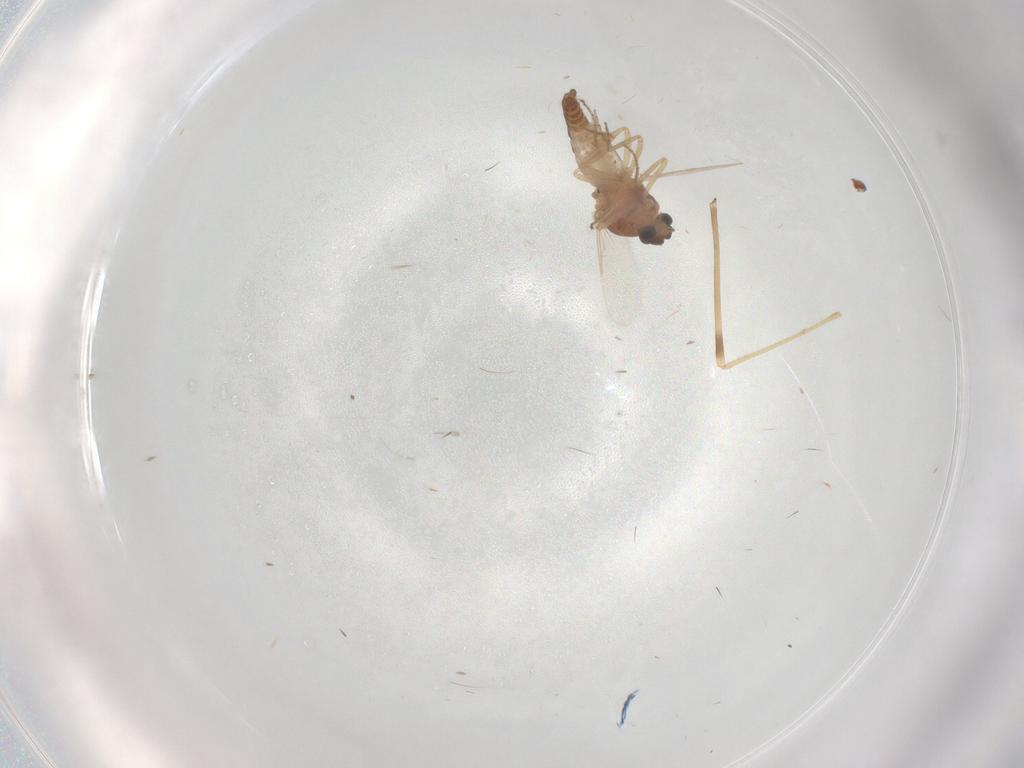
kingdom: Animalia
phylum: Arthropoda
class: Insecta
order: Diptera
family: Ceratopogonidae
